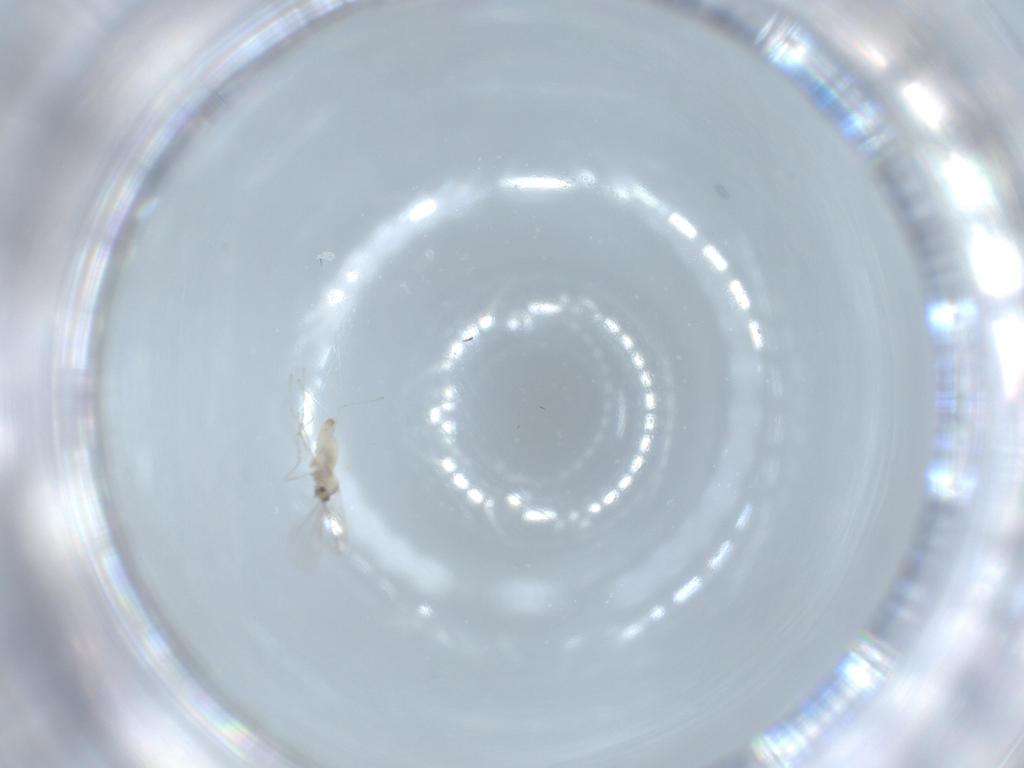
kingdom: Animalia
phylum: Arthropoda
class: Insecta
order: Diptera
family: Cecidomyiidae
